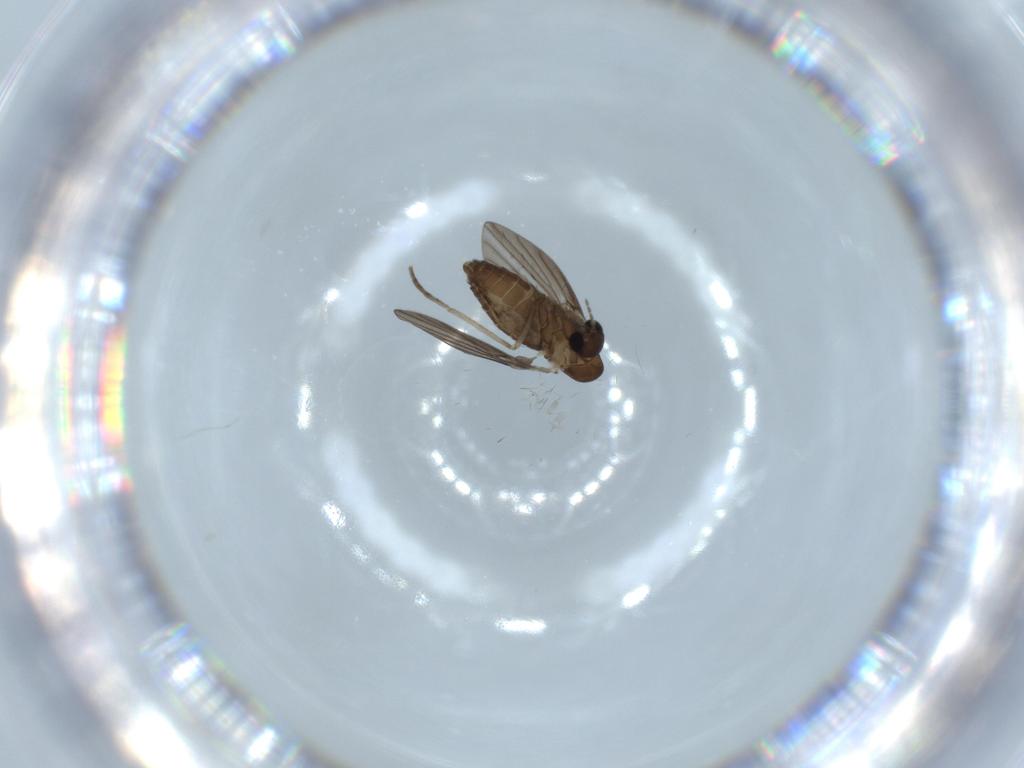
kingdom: Animalia
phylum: Arthropoda
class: Insecta
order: Diptera
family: Psychodidae
